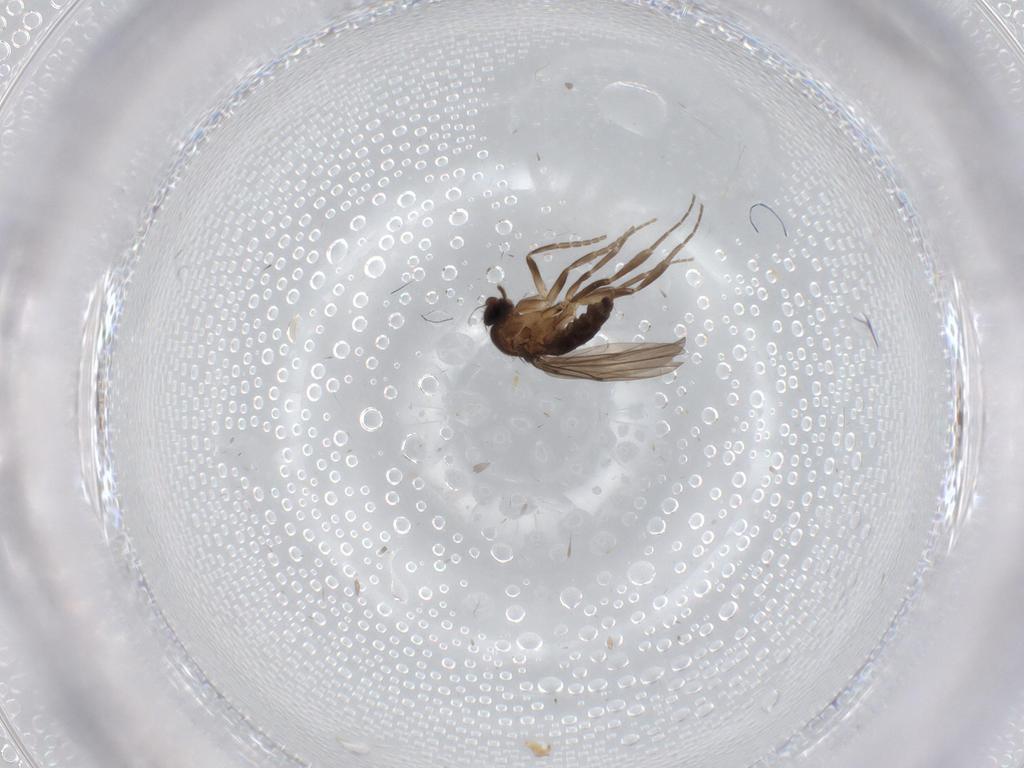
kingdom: Animalia
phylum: Arthropoda
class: Insecta
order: Diptera
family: Limoniidae
